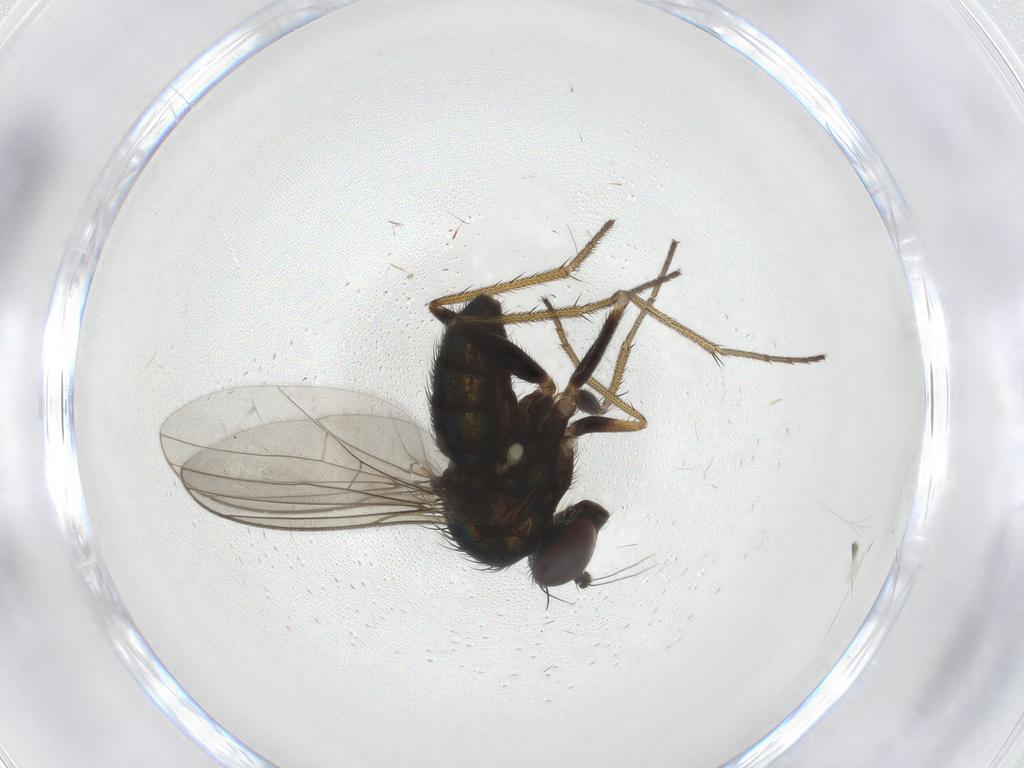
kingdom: Animalia
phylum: Arthropoda
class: Insecta
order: Diptera
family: Dolichopodidae
